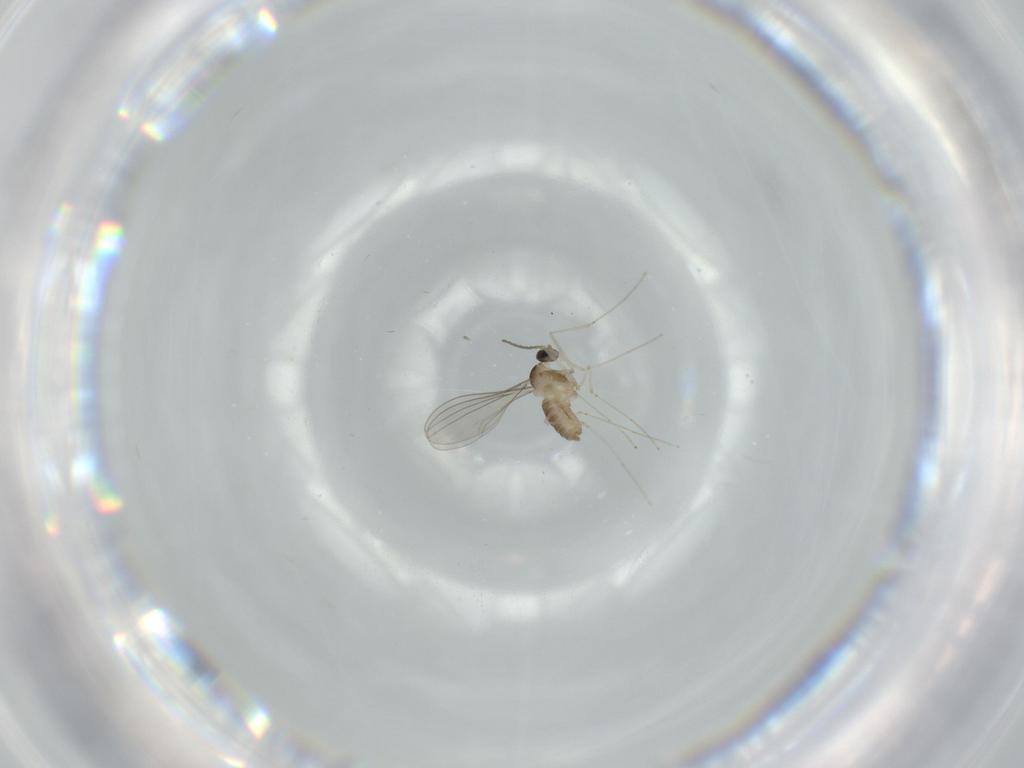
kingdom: Animalia
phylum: Arthropoda
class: Insecta
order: Diptera
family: Cecidomyiidae
